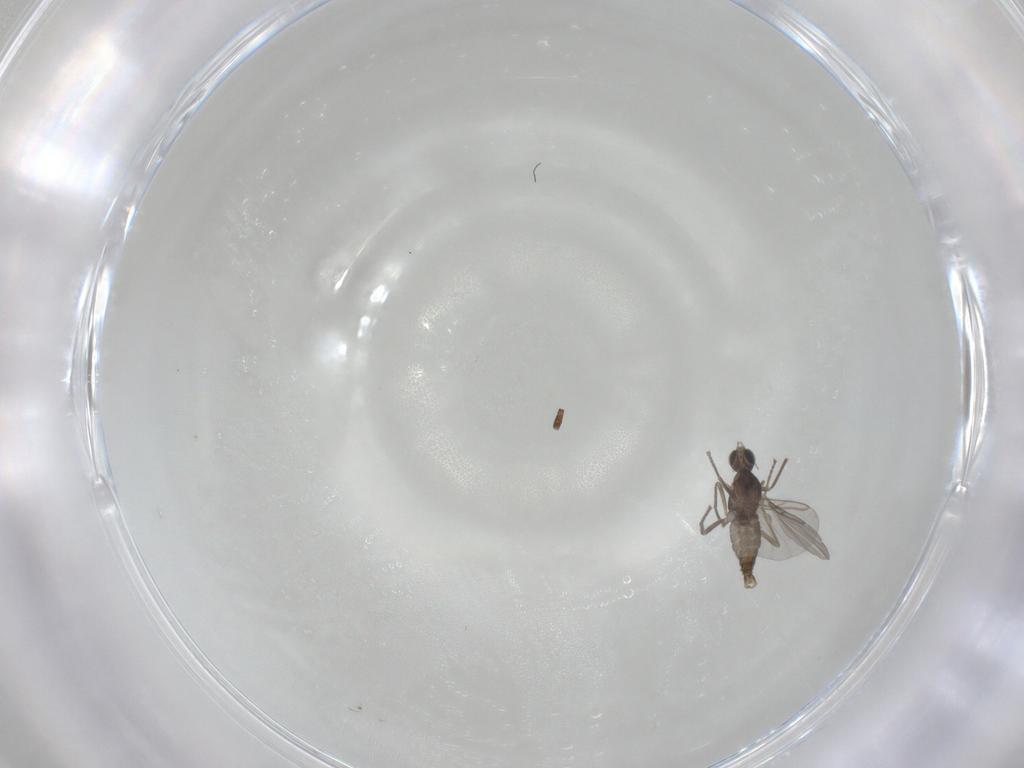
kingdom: Animalia
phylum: Arthropoda
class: Insecta
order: Diptera
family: Cecidomyiidae
